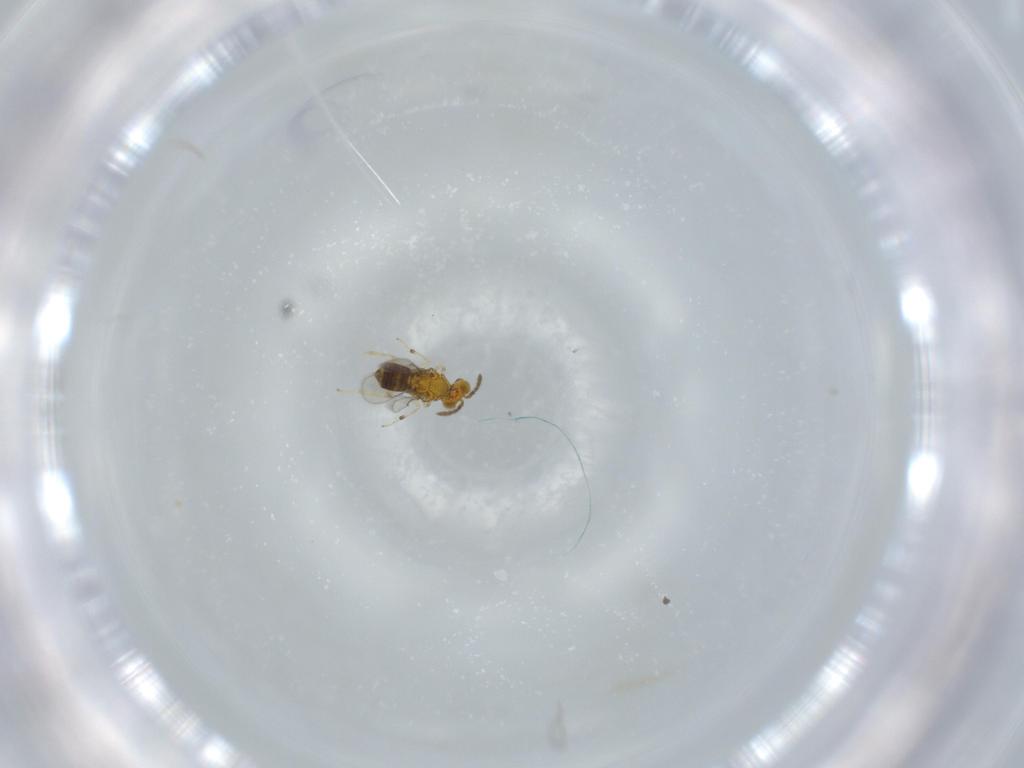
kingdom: Animalia
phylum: Arthropoda
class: Insecta
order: Hymenoptera
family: Aphelinidae
